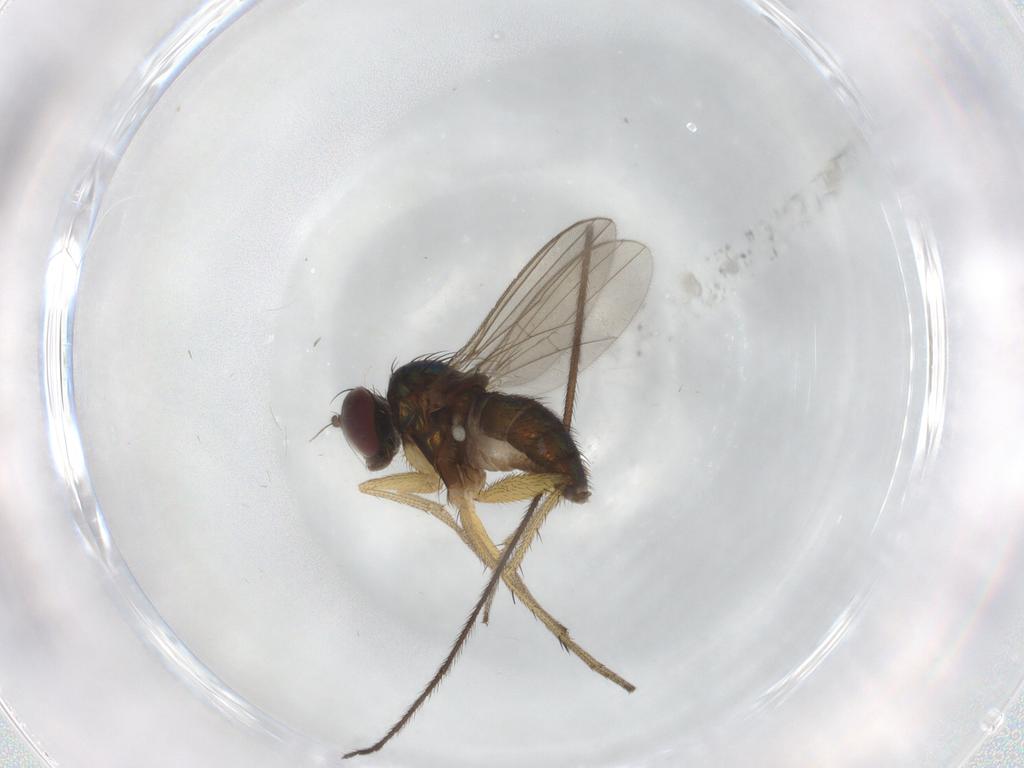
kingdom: Animalia
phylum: Arthropoda
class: Insecta
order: Diptera
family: Limoniidae
